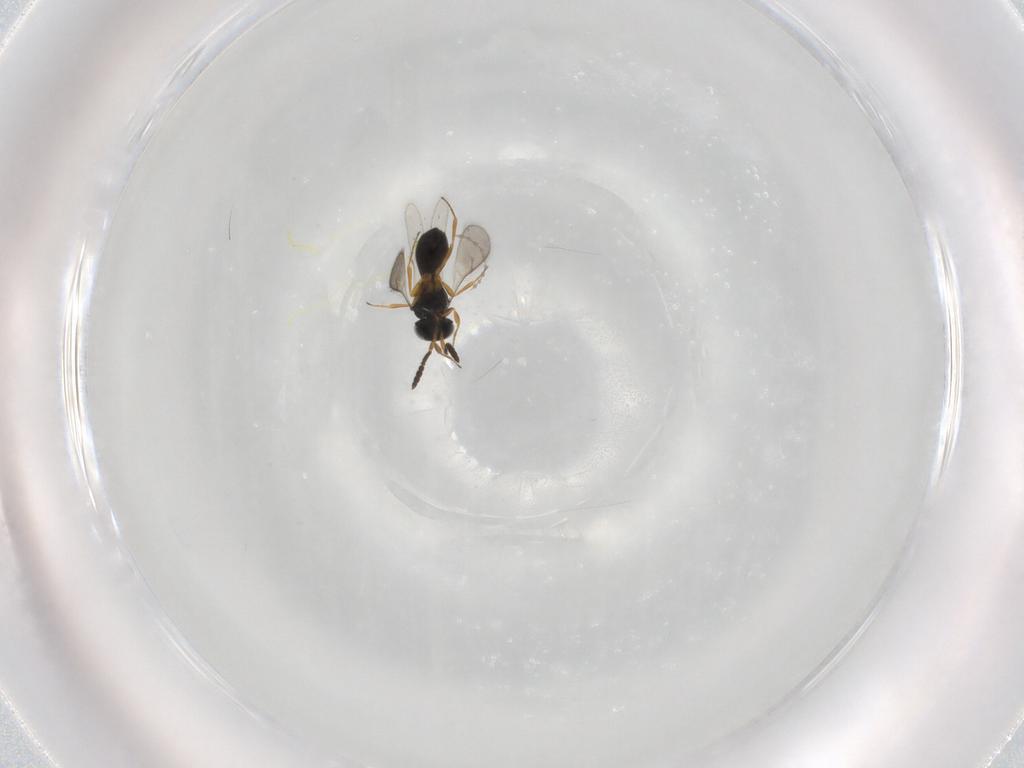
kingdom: Animalia
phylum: Arthropoda
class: Insecta
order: Hymenoptera
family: Scelionidae
